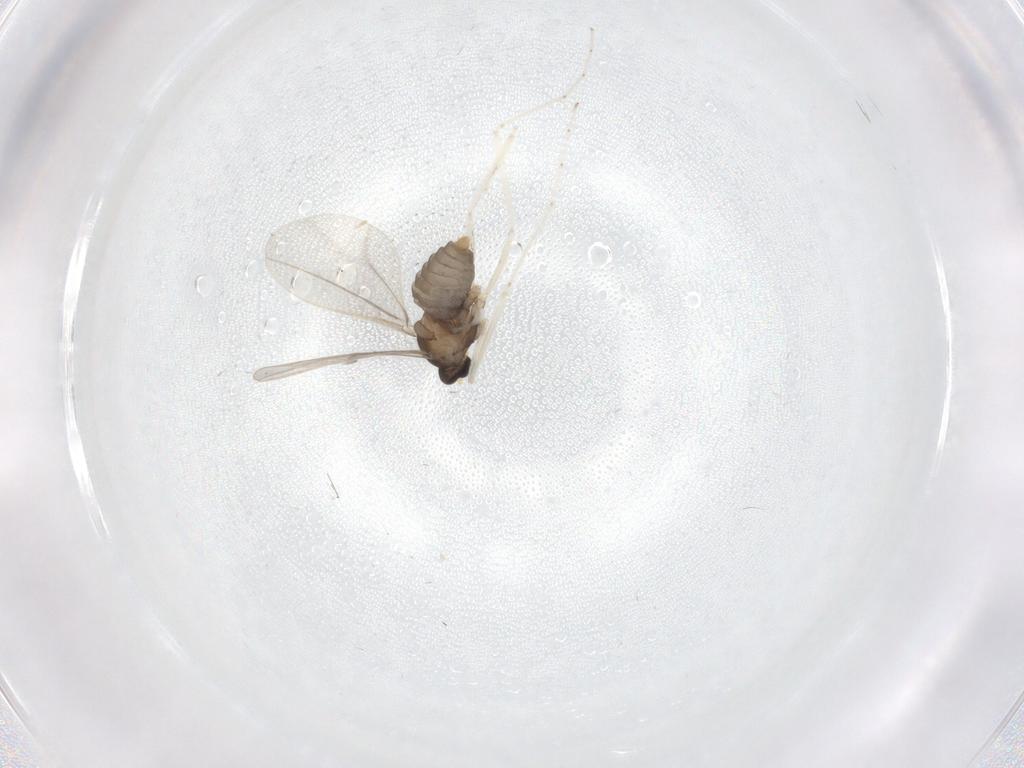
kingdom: Animalia
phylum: Arthropoda
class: Insecta
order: Diptera
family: Cecidomyiidae
